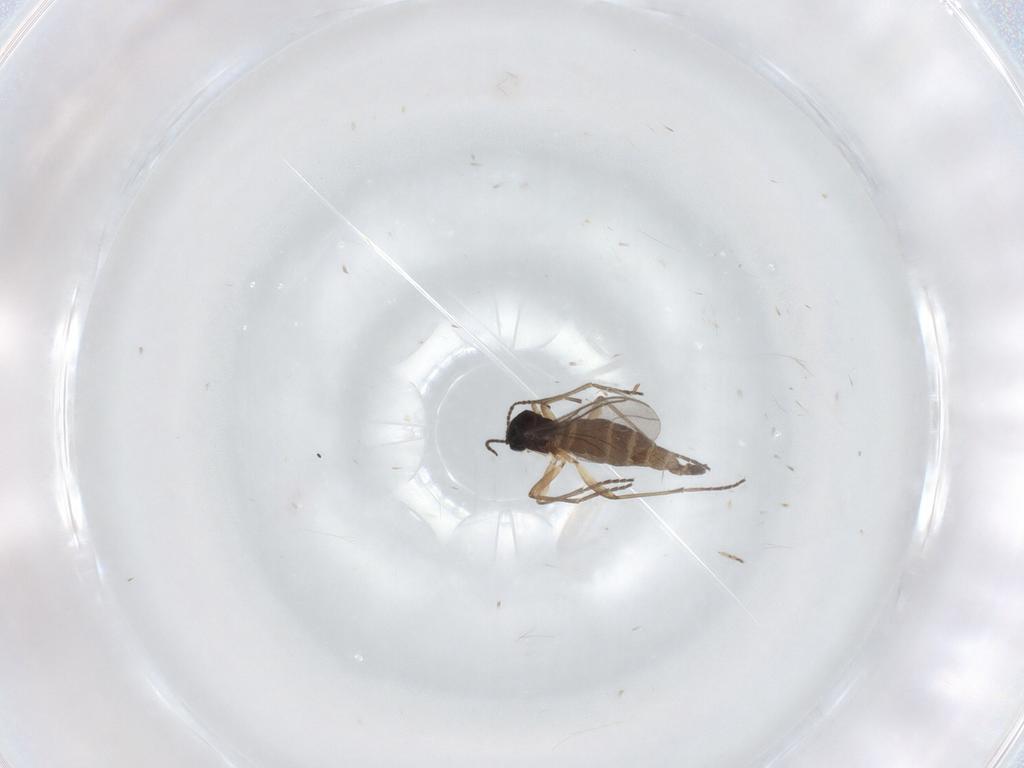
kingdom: Animalia
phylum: Arthropoda
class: Insecta
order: Diptera
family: Sciaridae
